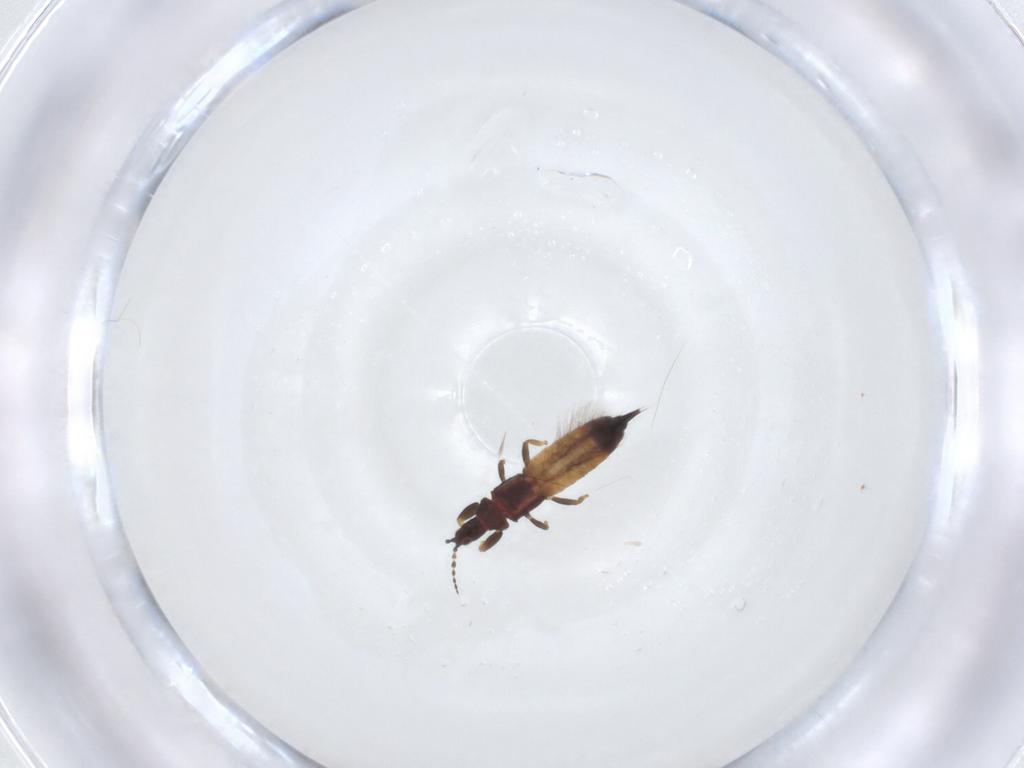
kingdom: Animalia
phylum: Arthropoda
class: Insecta
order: Thysanoptera
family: Phlaeothripidae
